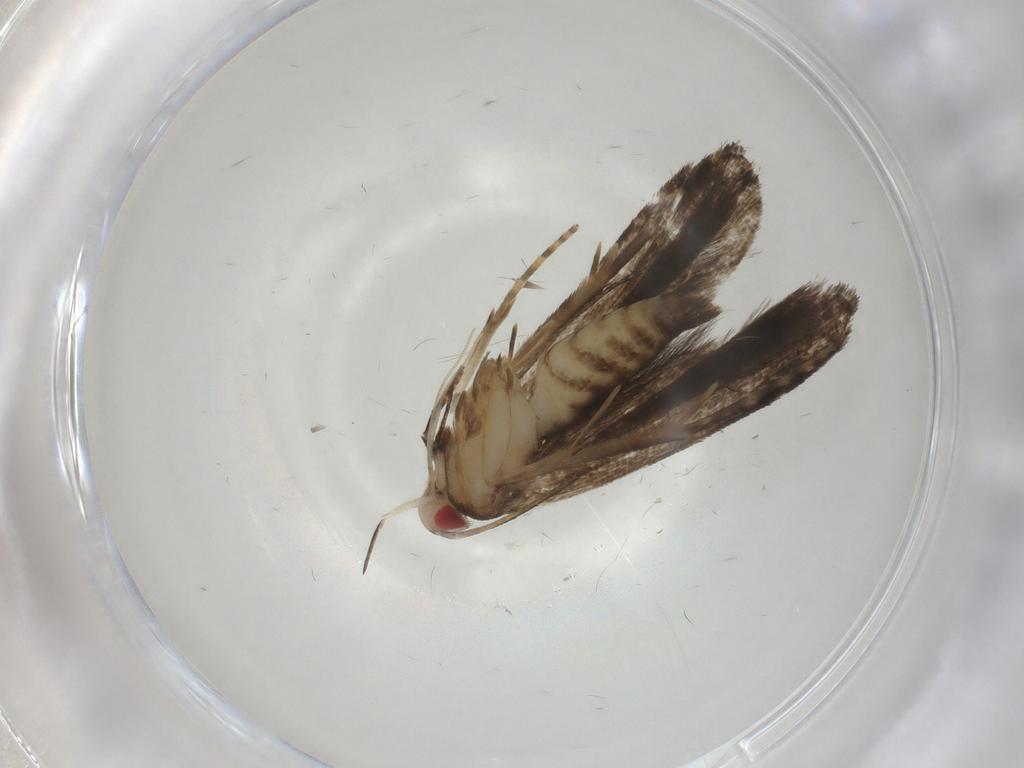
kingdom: Animalia
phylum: Arthropoda
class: Insecta
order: Lepidoptera
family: Gelechiidae
